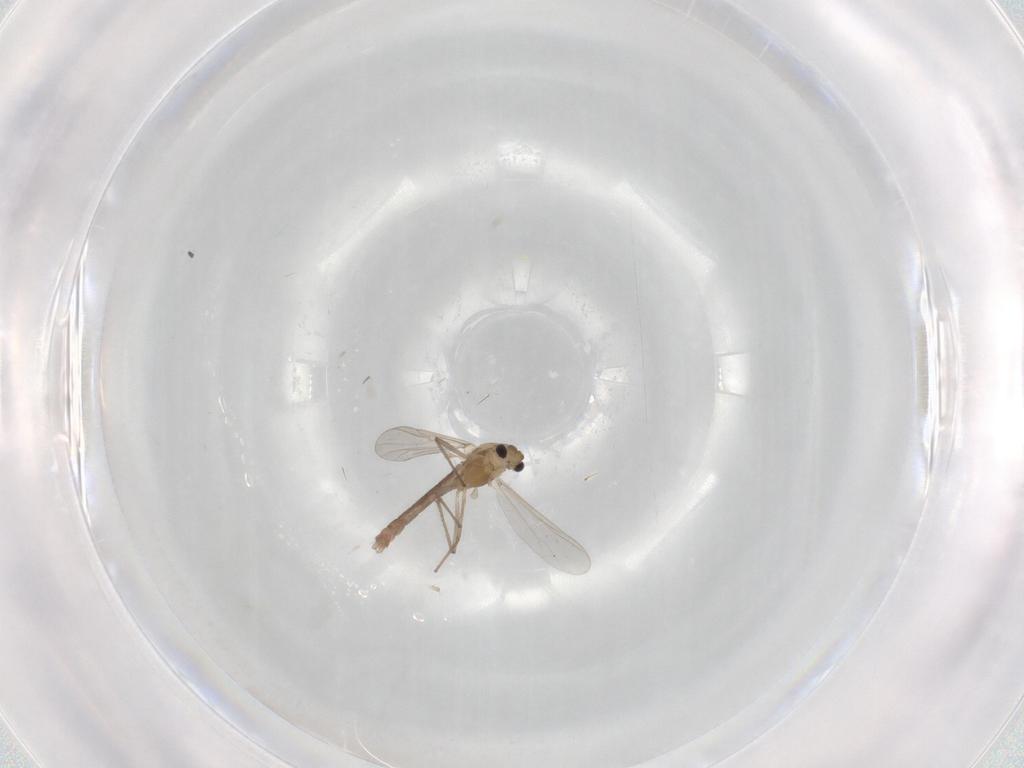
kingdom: Animalia
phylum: Arthropoda
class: Insecta
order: Diptera
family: Chironomidae
